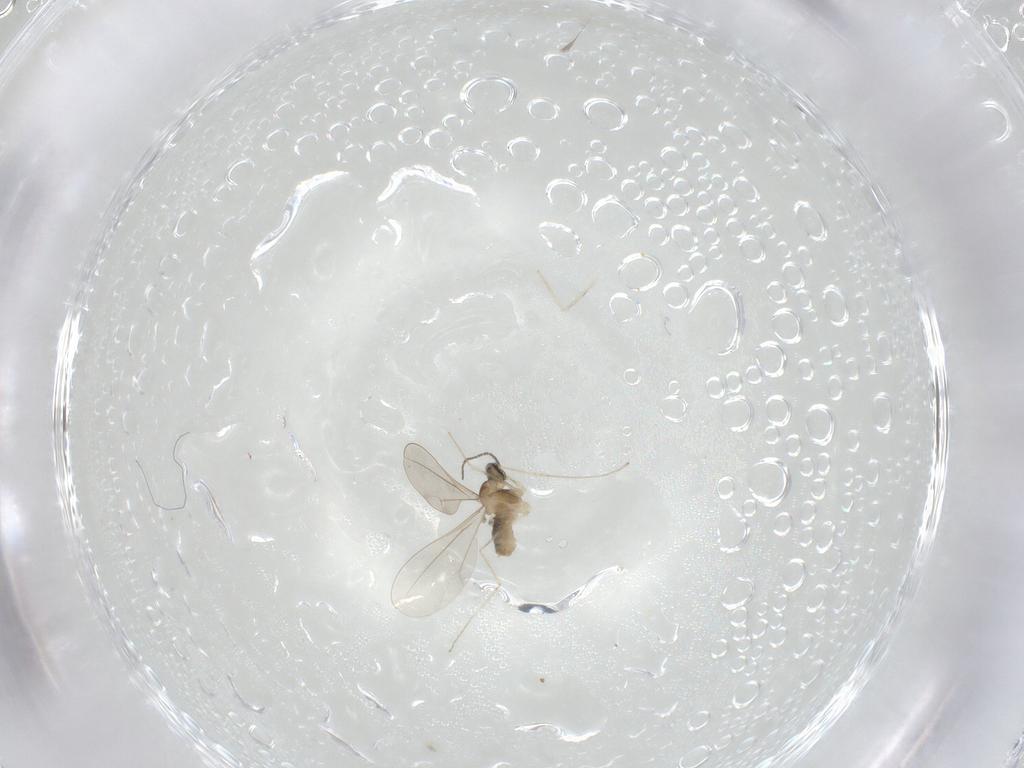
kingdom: Animalia
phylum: Arthropoda
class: Insecta
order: Diptera
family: Cecidomyiidae
